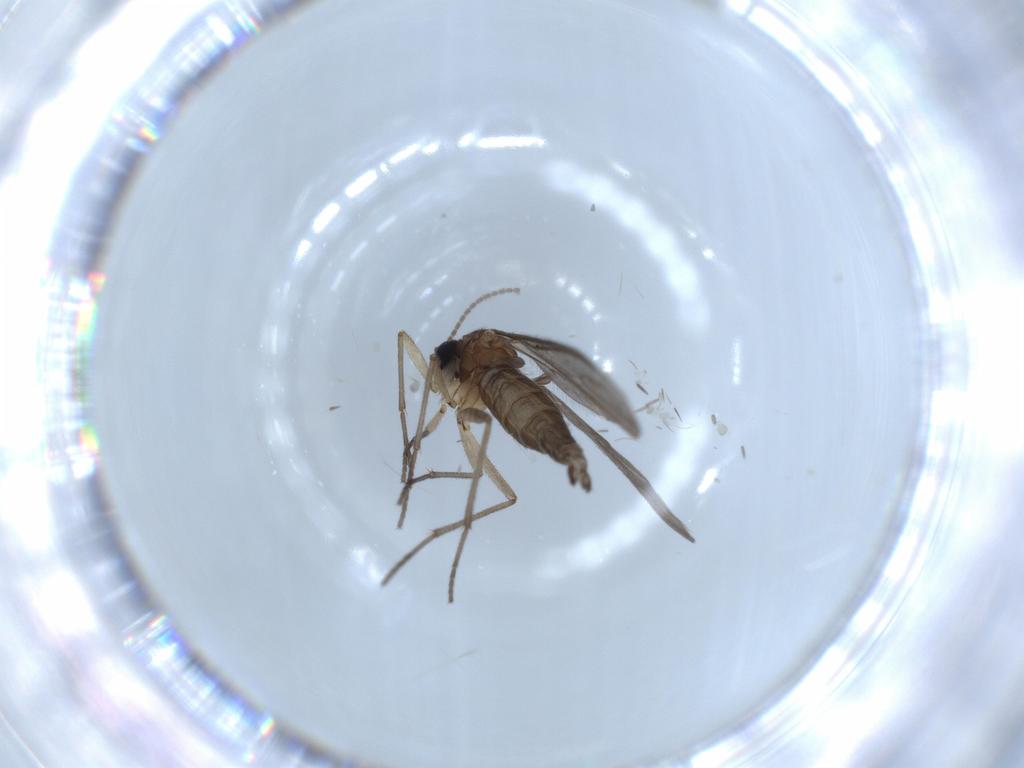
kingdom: Animalia
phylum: Arthropoda
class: Insecta
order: Diptera
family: Sciaridae
